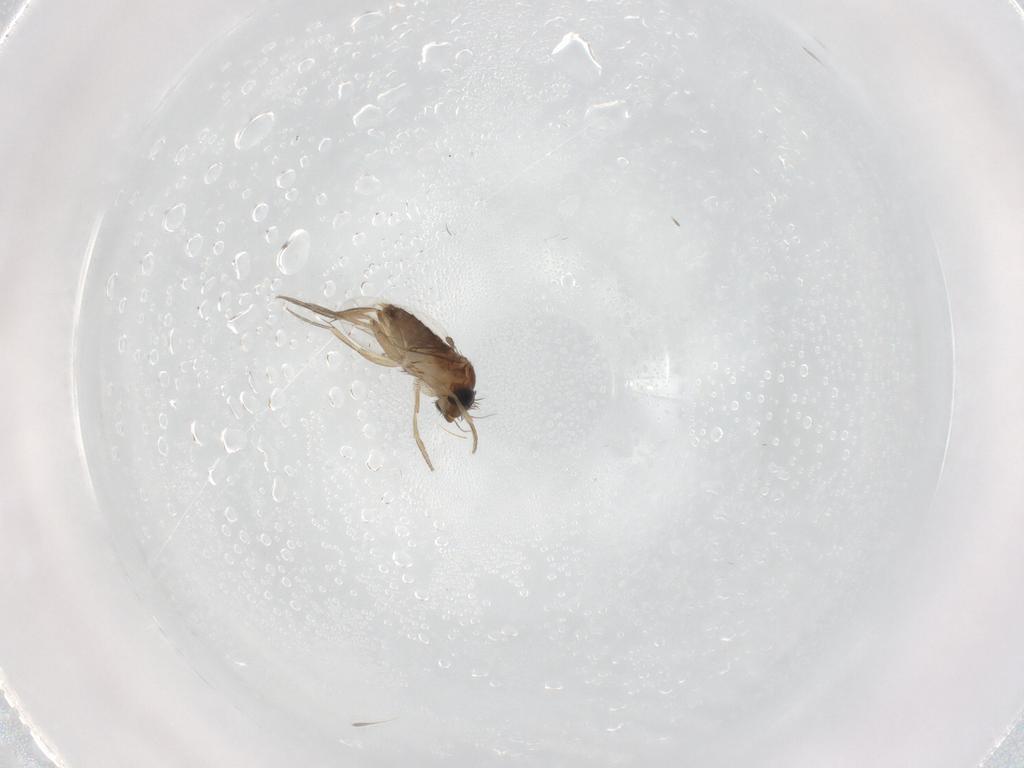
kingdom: Animalia
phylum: Arthropoda
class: Insecta
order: Diptera
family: Phoridae
